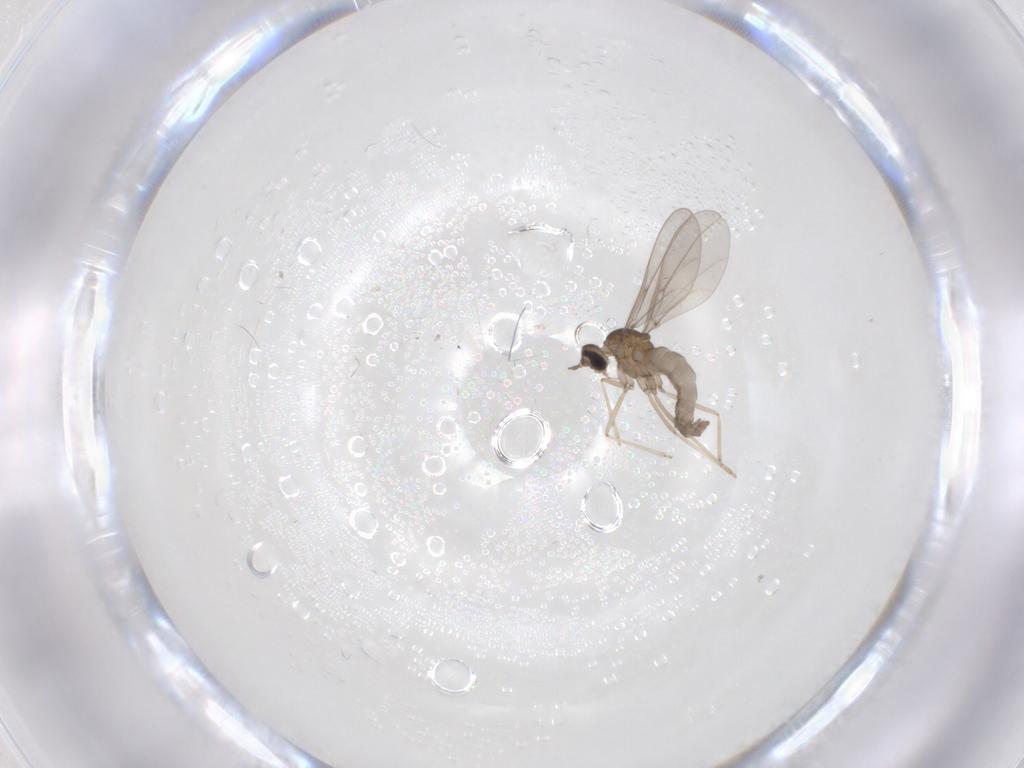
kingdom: Animalia
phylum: Arthropoda
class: Insecta
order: Diptera
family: Cecidomyiidae
